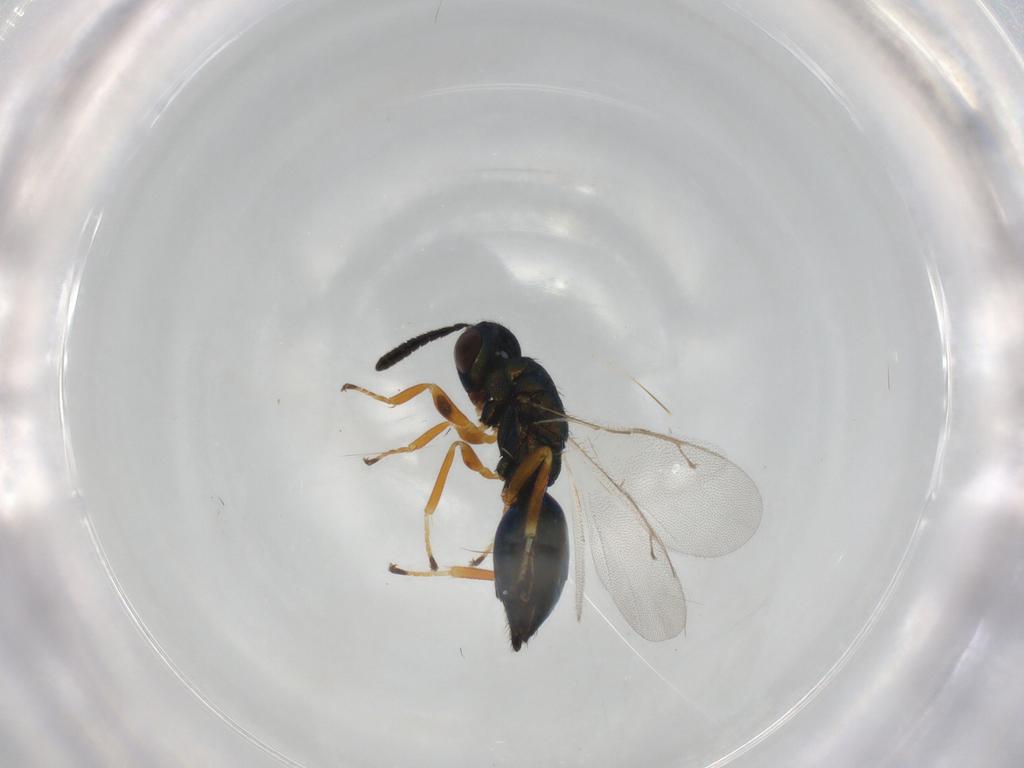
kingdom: Animalia
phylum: Arthropoda
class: Insecta
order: Hymenoptera
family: Pteromalidae
